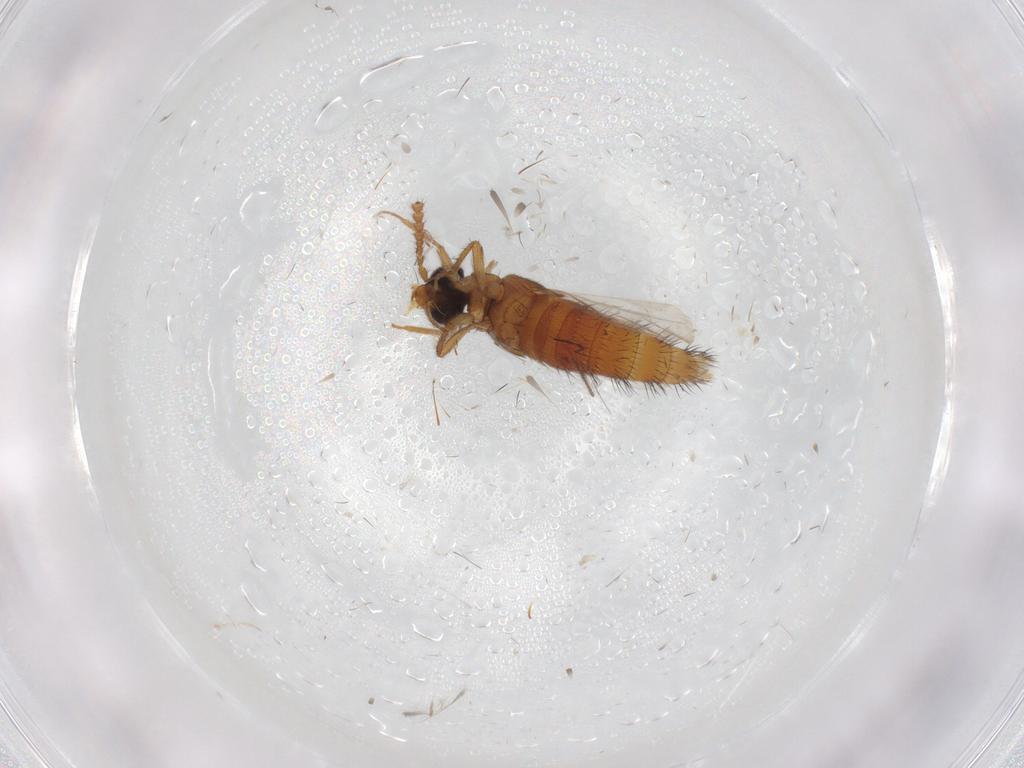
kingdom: Animalia
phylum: Arthropoda
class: Insecta
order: Coleoptera
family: Staphylinidae
